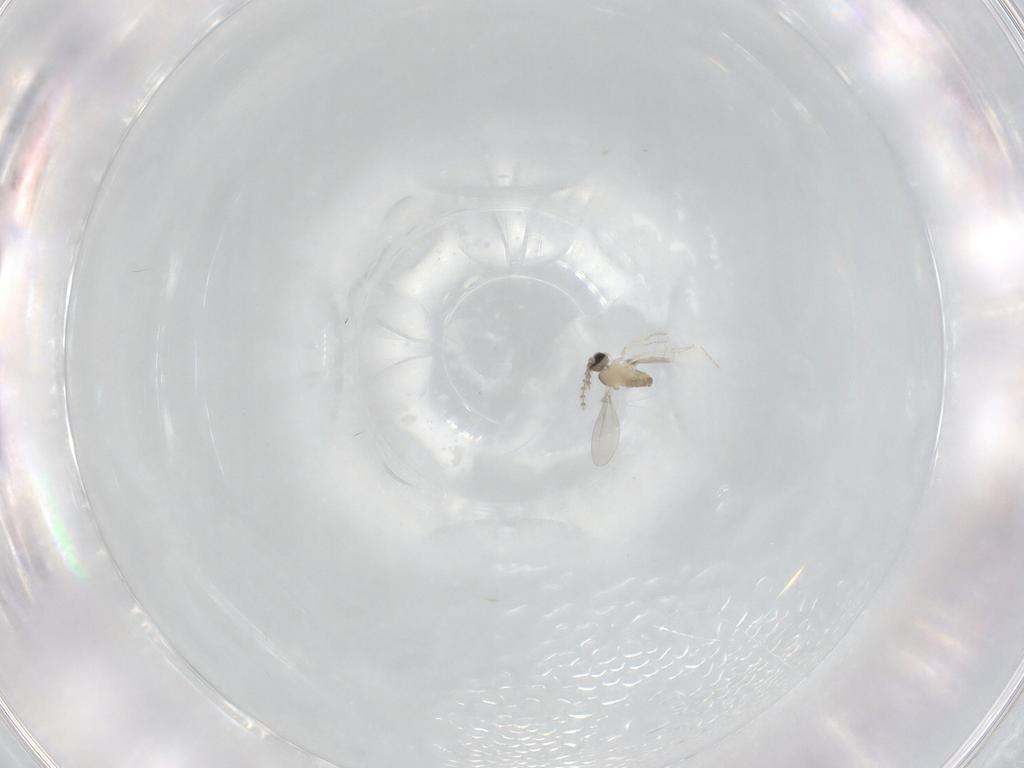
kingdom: Animalia
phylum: Arthropoda
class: Insecta
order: Diptera
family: Cecidomyiidae
